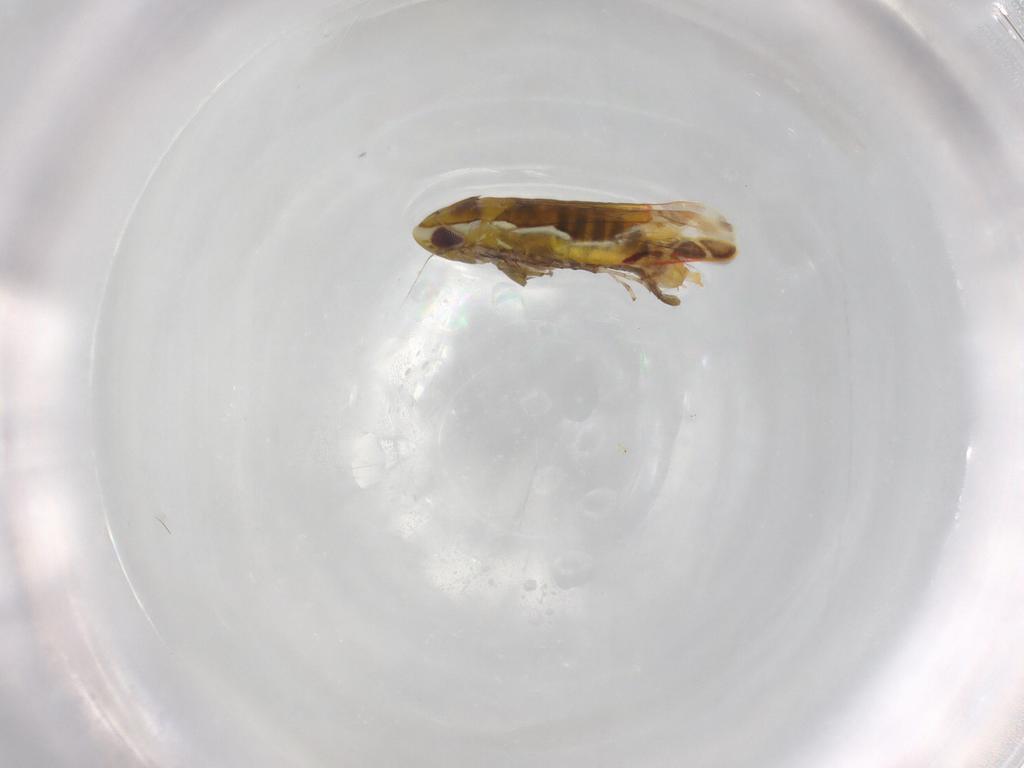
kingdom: Animalia
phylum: Arthropoda
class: Insecta
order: Hemiptera
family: Cicadellidae
